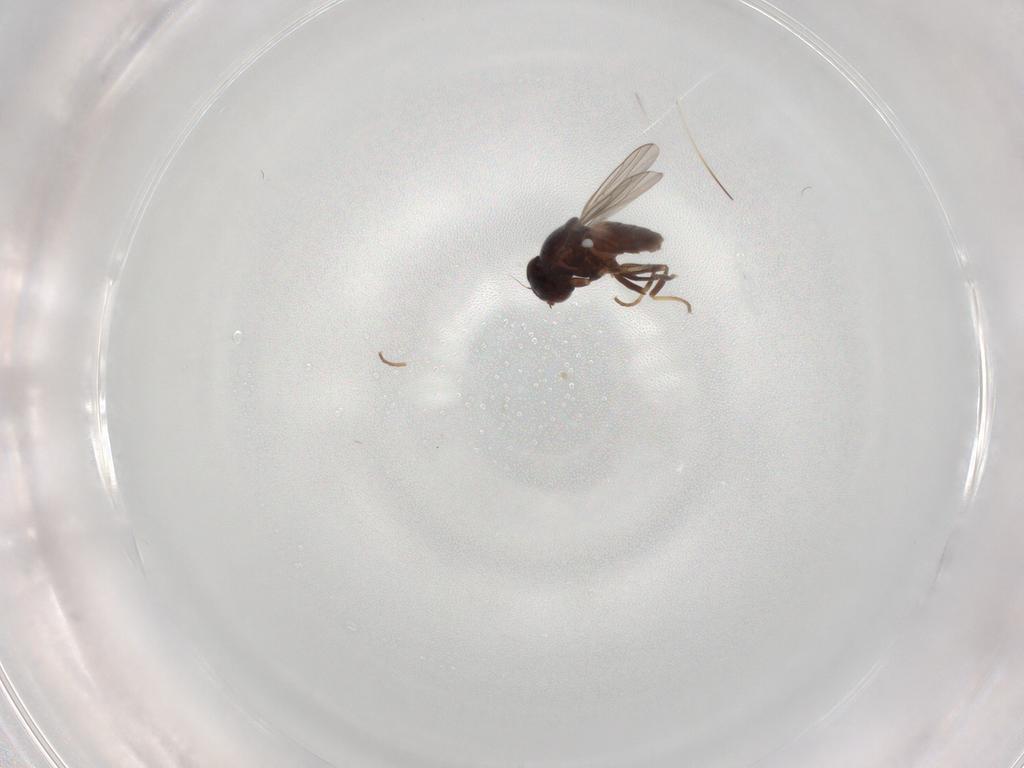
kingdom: Animalia
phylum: Arthropoda
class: Insecta
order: Diptera
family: Chloropidae
